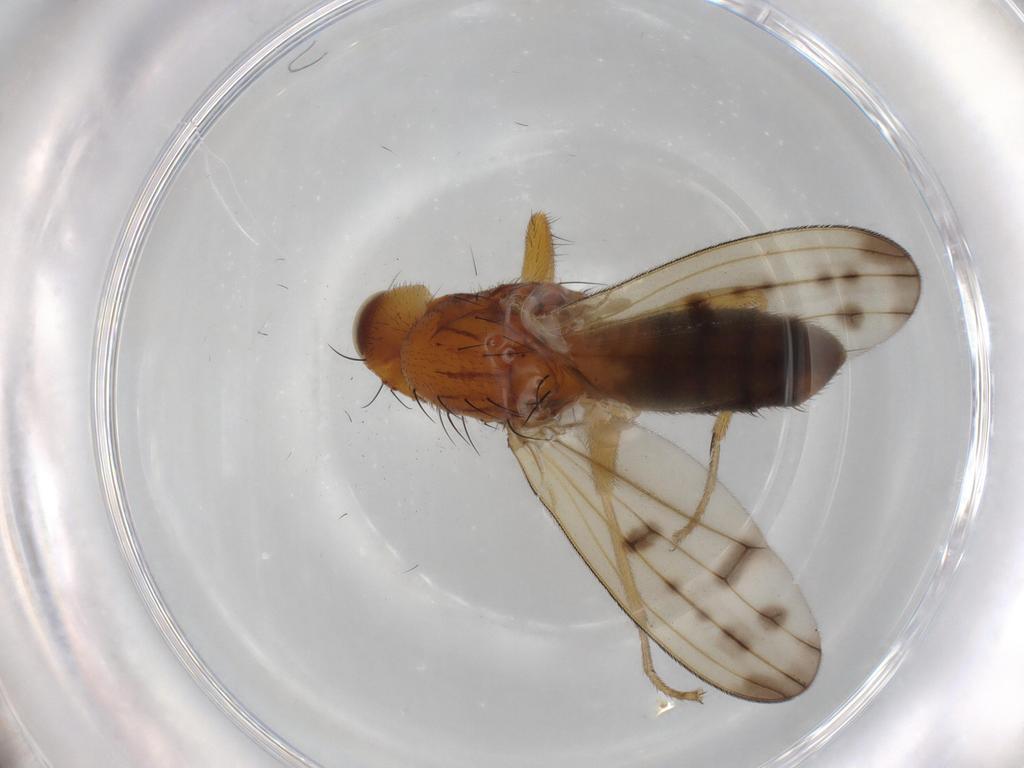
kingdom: Animalia
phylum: Arthropoda
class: Insecta
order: Diptera
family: Opomyzidae
